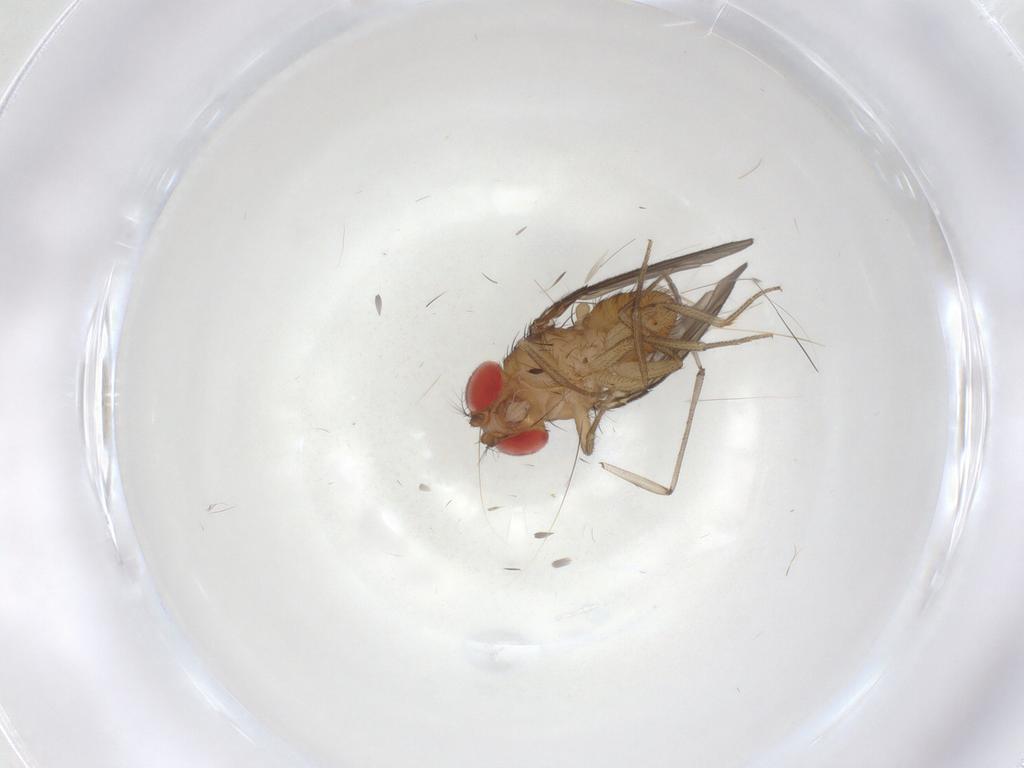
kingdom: Animalia
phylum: Arthropoda
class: Insecta
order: Diptera
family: Drosophilidae
